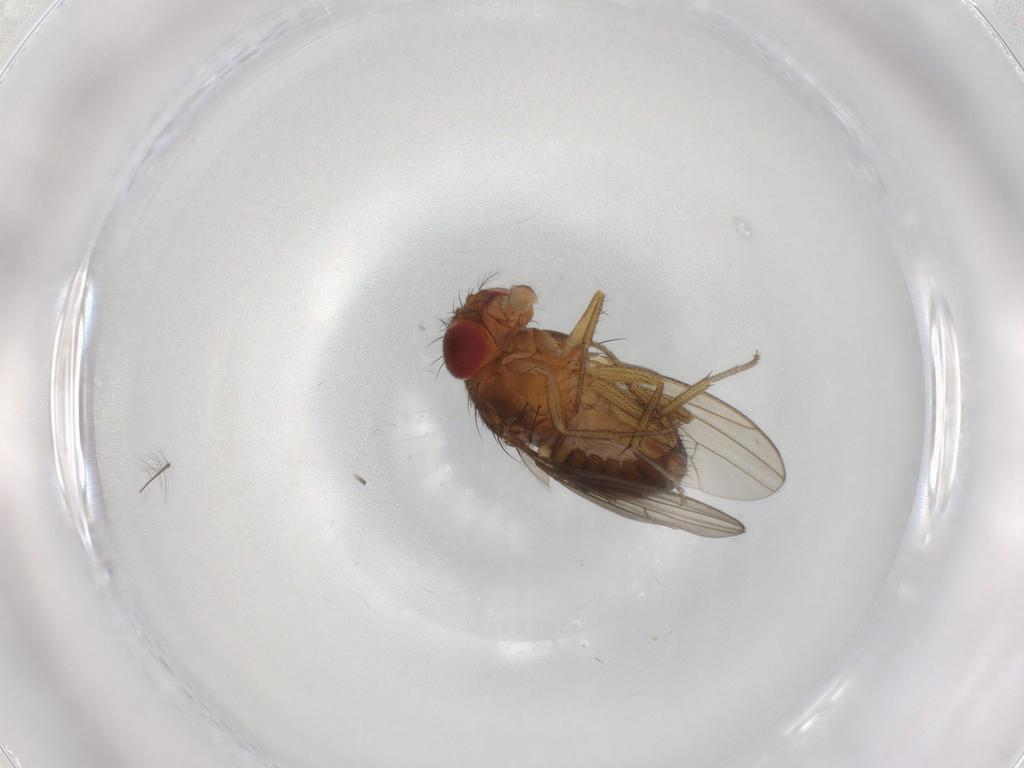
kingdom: Animalia
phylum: Arthropoda
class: Insecta
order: Diptera
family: Drosophilidae
